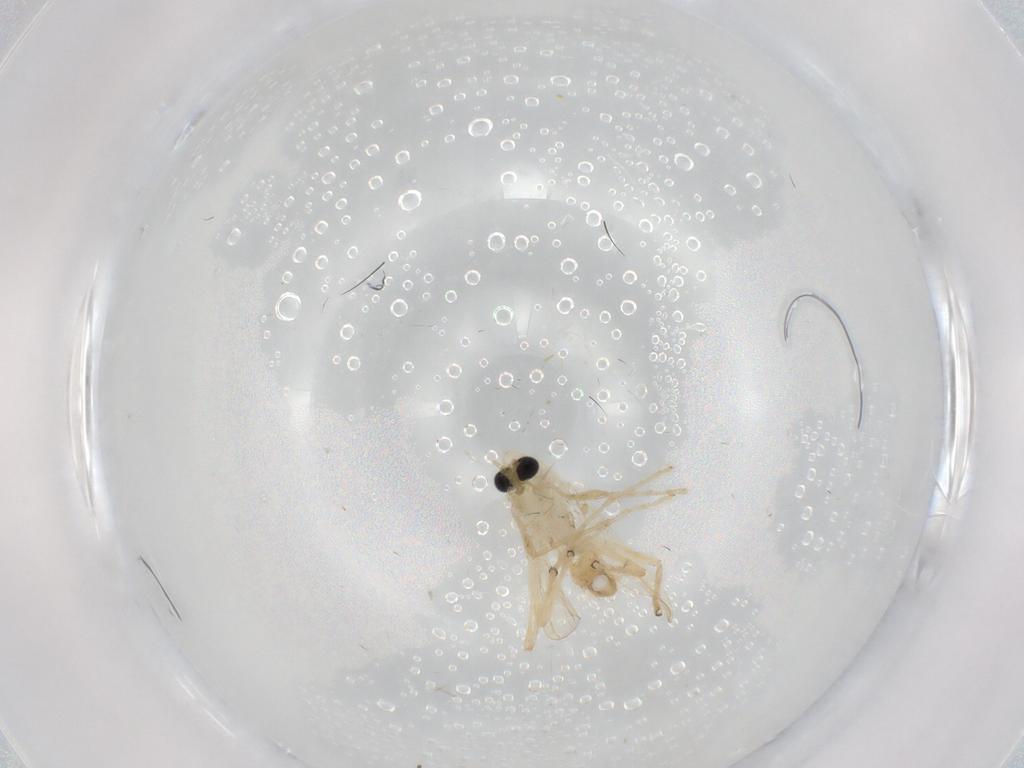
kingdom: Animalia
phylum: Arthropoda
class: Insecta
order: Diptera
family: Chironomidae
